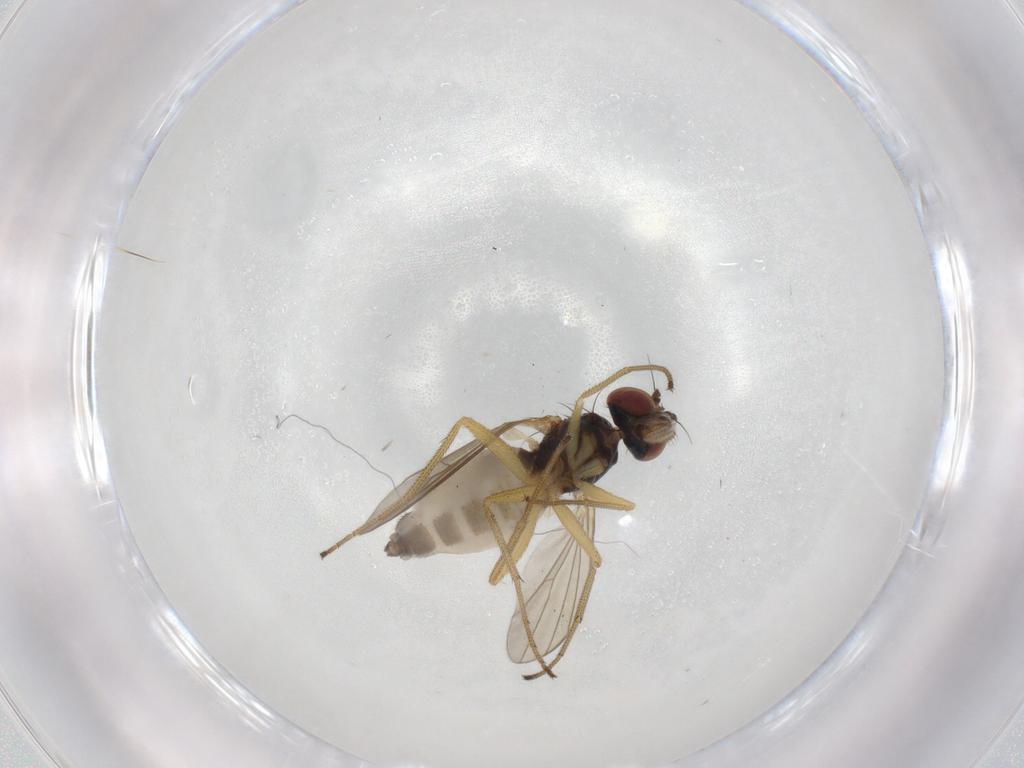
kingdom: Animalia
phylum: Arthropoda
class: Insecta
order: Diptera
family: Dolichopodidae
